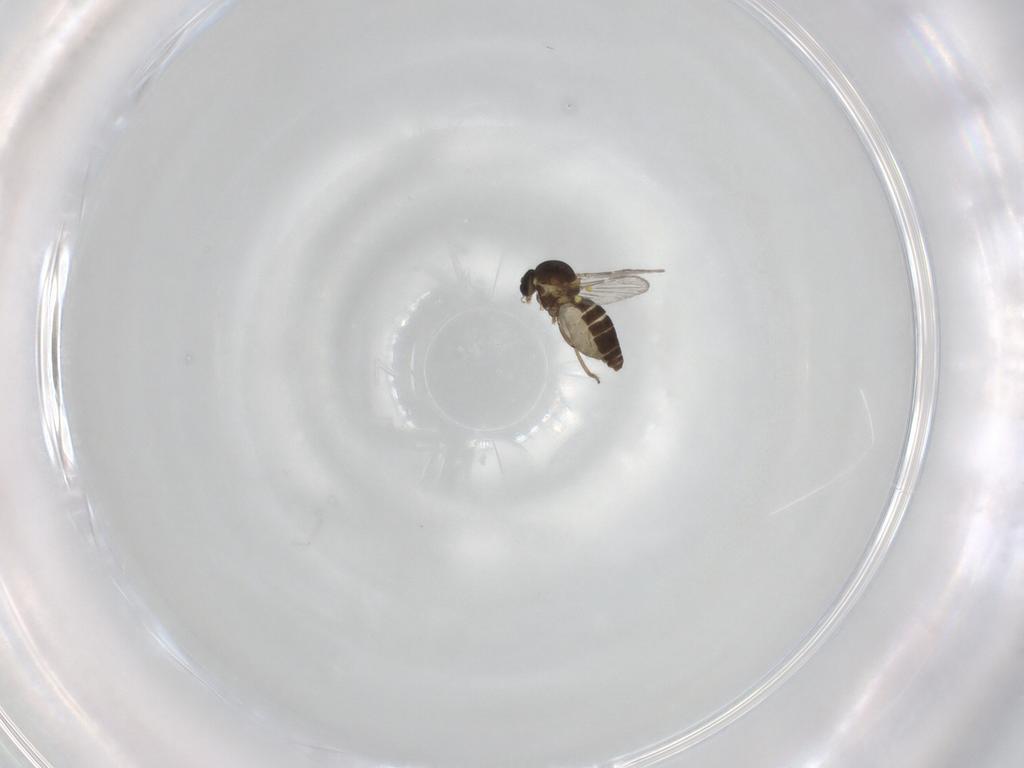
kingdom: Animalia
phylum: Arthropoda
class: Insecta
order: Diptera
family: Ceratopogonidae
